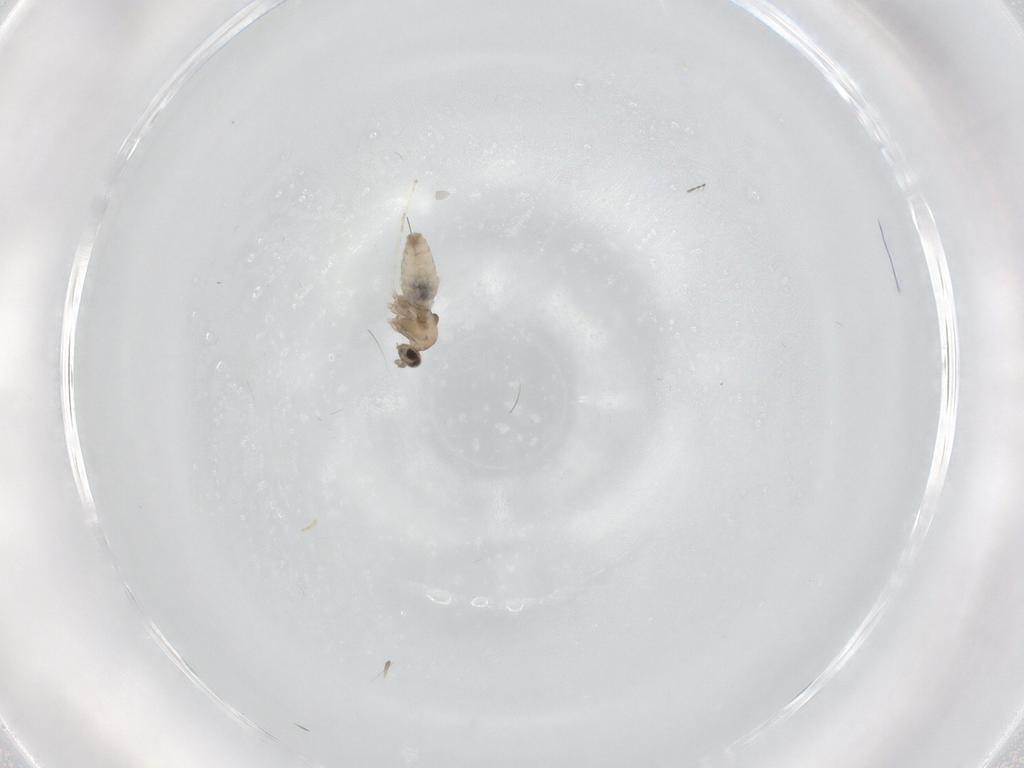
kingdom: Animalia
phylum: Arthropoda
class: Insecta
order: Diptera
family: Cecidomyiidae
